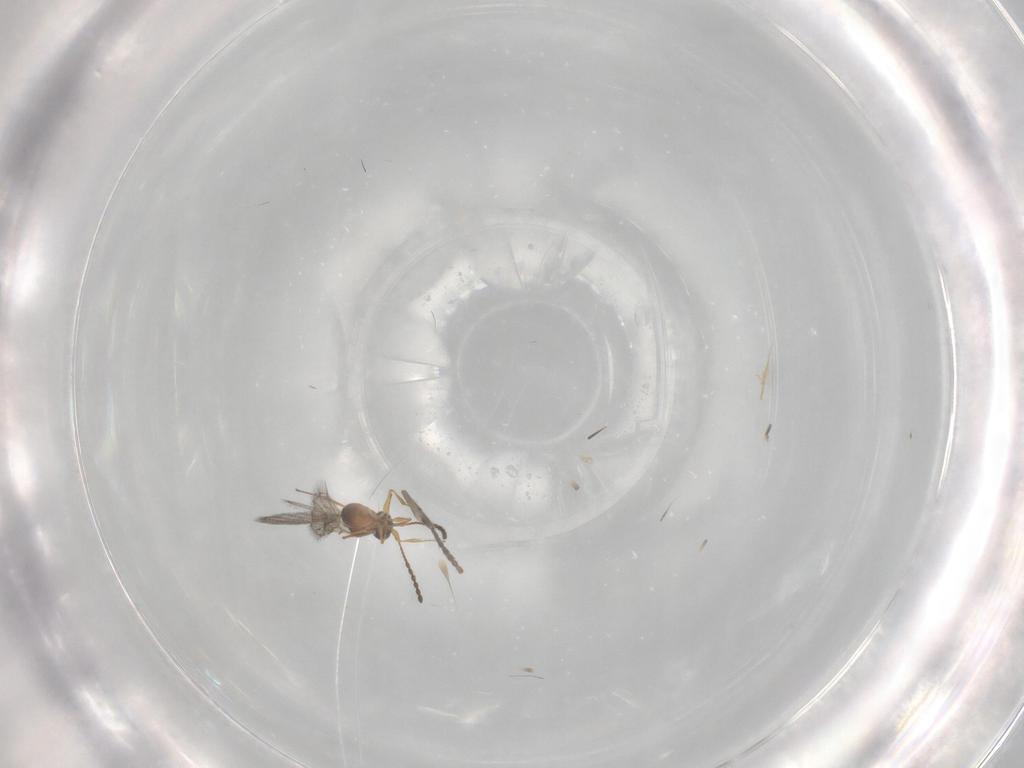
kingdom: Animalia
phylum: Arthropoda
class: Insecta
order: Hymenoptera
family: Figitidae
